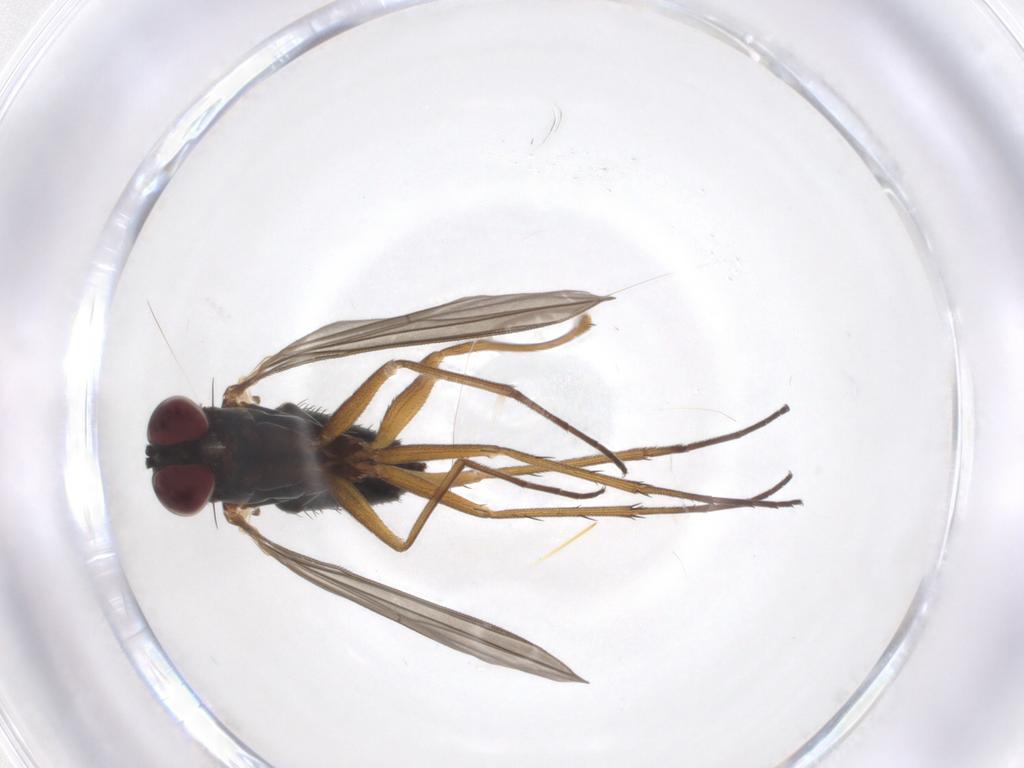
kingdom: Animalia
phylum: Arthropoda
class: Insecta
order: Diptera
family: Dolichopodidae
